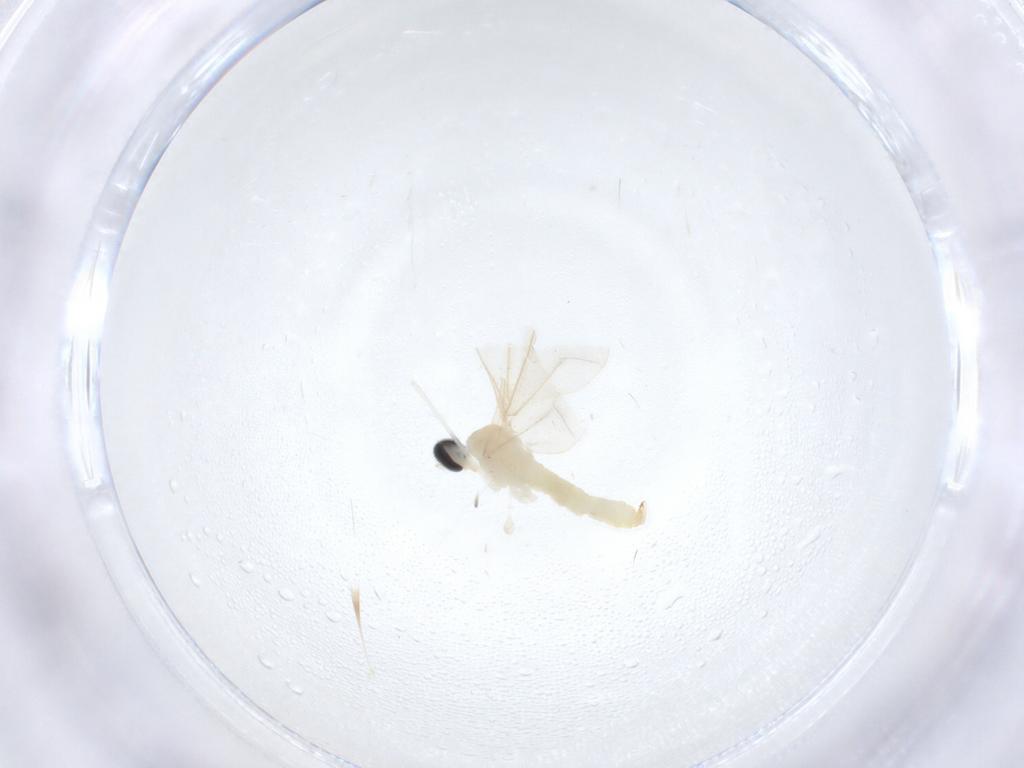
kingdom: Animalia
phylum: Arthropoda
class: Insecta
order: Diptera
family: Cecidomyiidae
